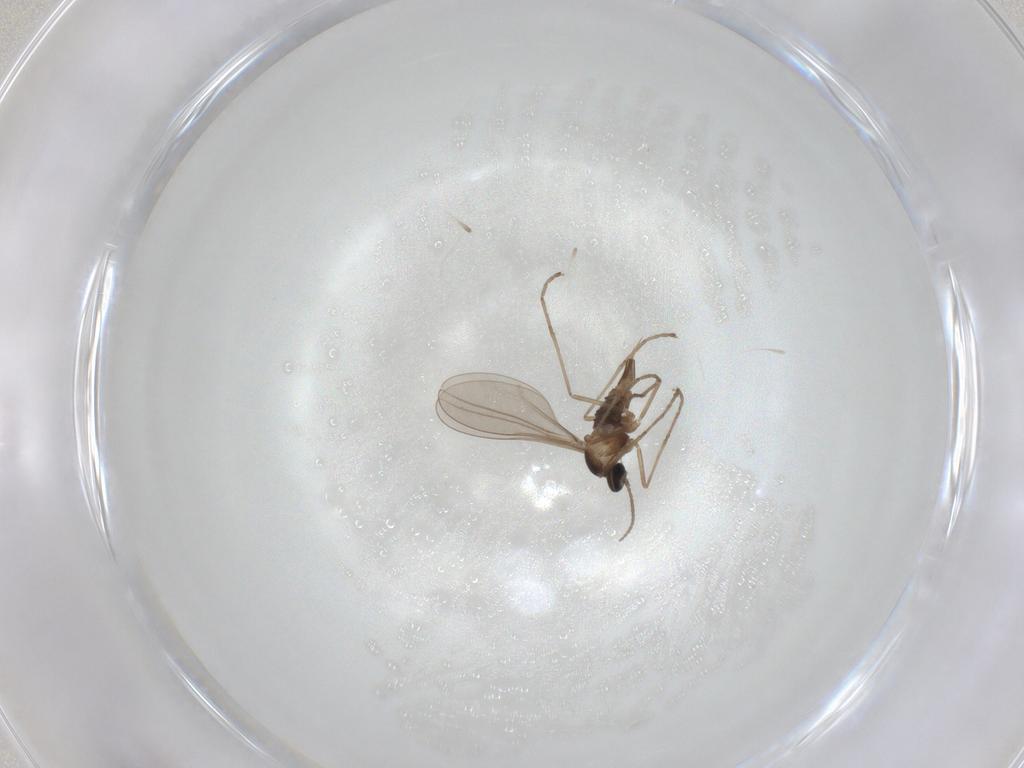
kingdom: Animalia
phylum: Arthropoda
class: Insecta
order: Diptera
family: Cecidomyiidae
